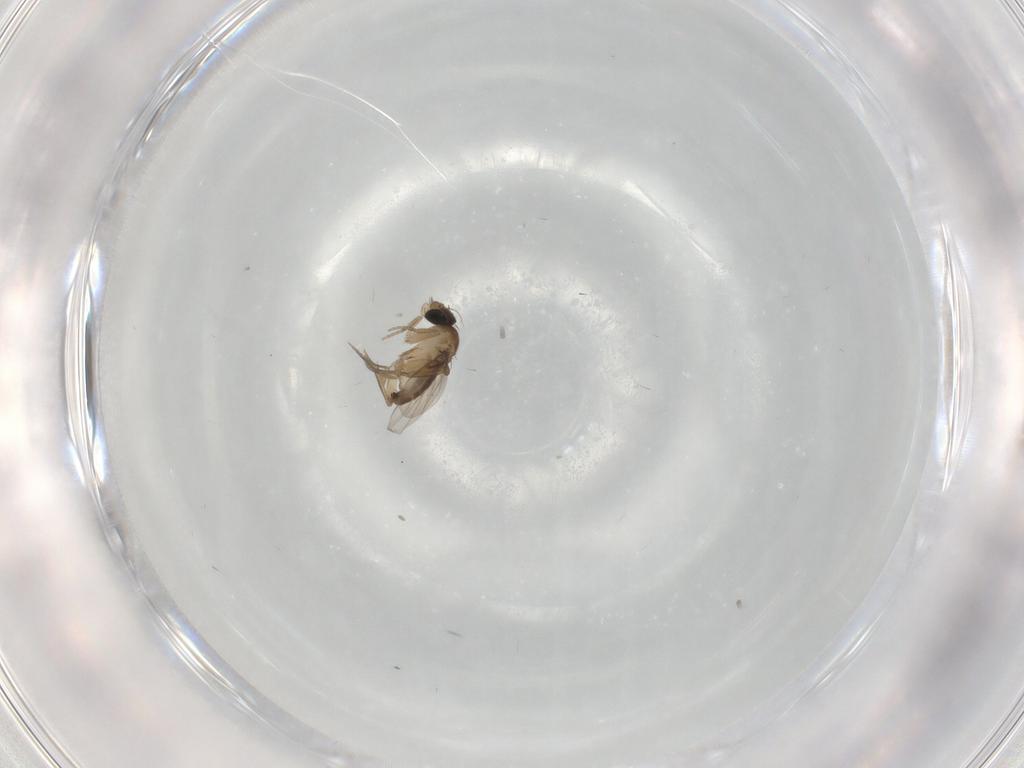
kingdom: Animalia
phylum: Arthropoda
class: Insecta
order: Diptera
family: Phoridae
